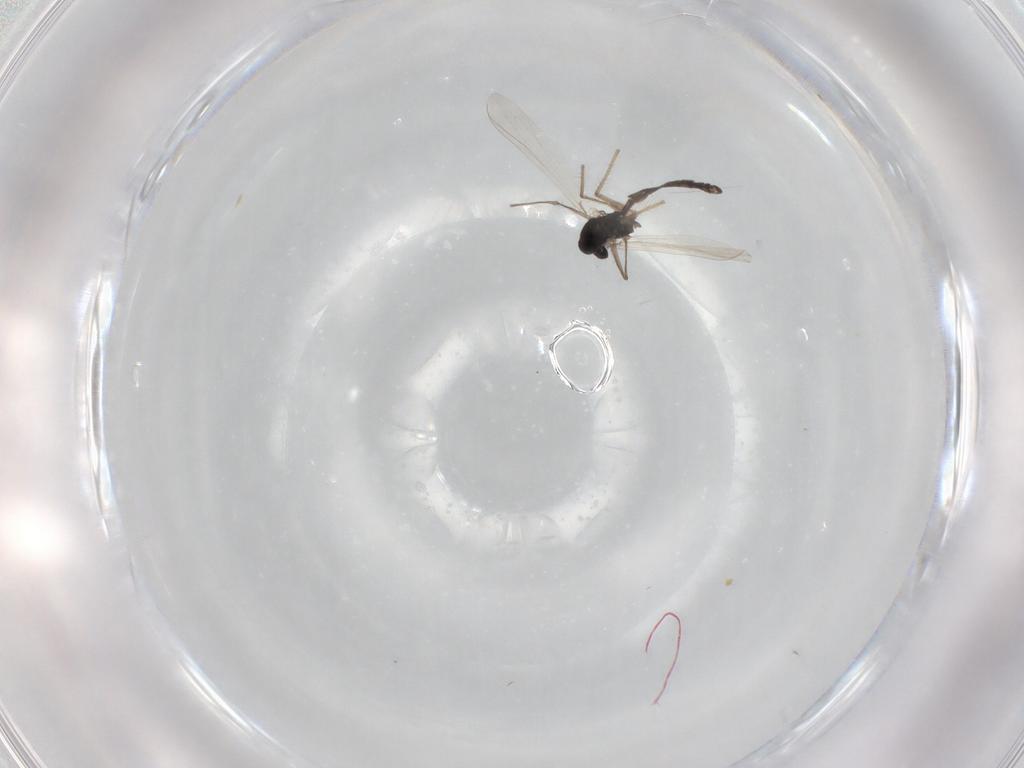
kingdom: Animalia
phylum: Arthropoda
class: Insecta
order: Diptera
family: Chironomidae
